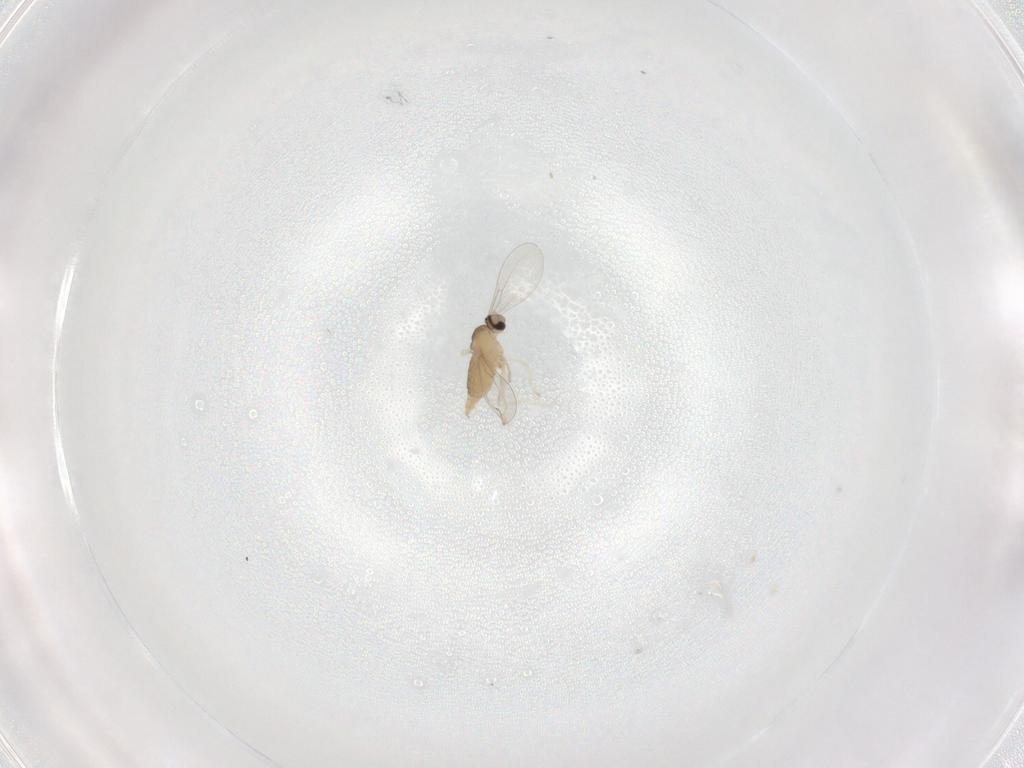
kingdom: Animalia
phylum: Arthropoda
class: Insecta
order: Diptera
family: Cecidomyiidae
